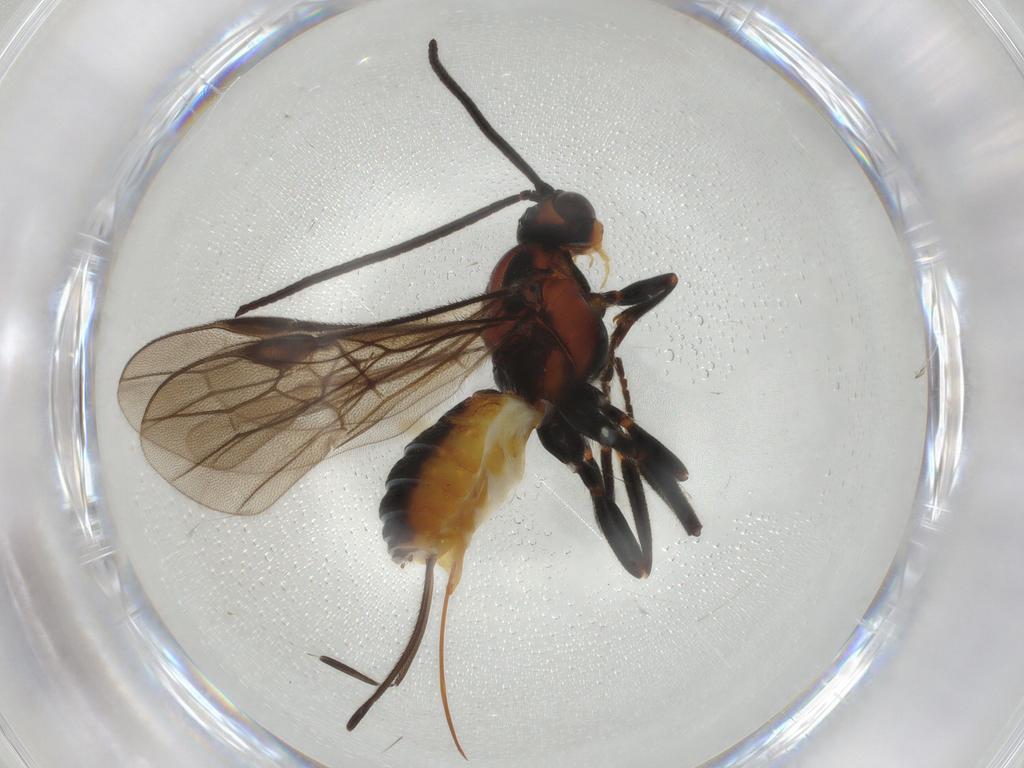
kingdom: Animalia
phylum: Arthropoda
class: Insecta
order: Hymenoptera
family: Braconidae
